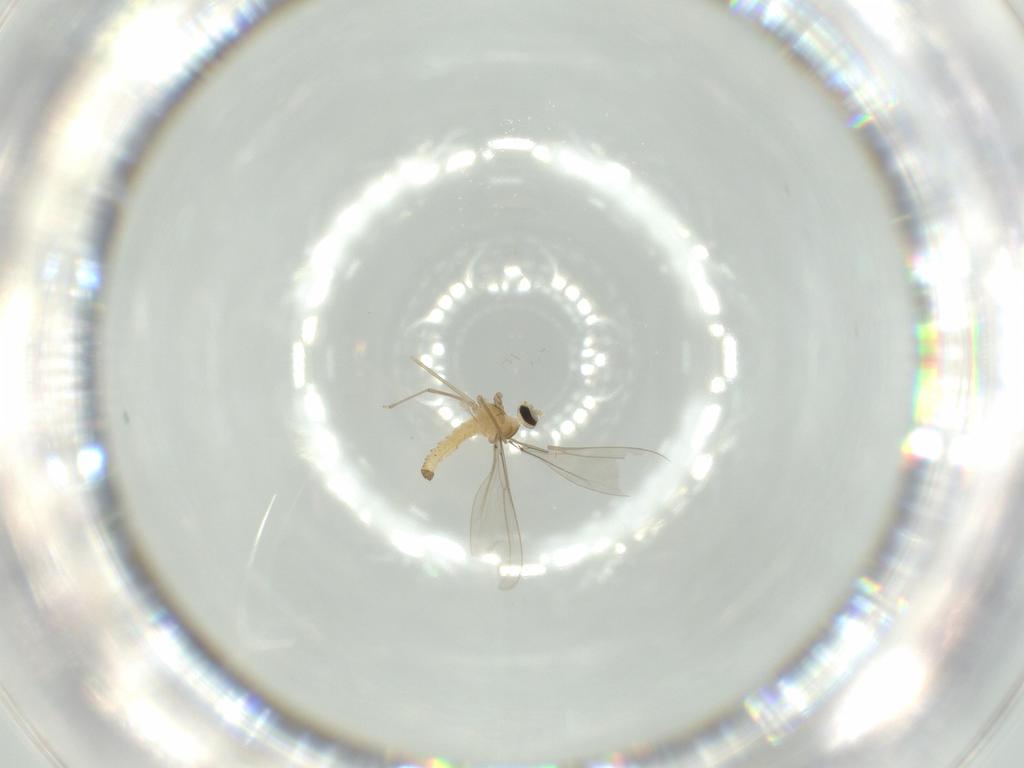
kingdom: Animalia
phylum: Arthropoda
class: Insecta
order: Diptera
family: Cecidomyiidae
